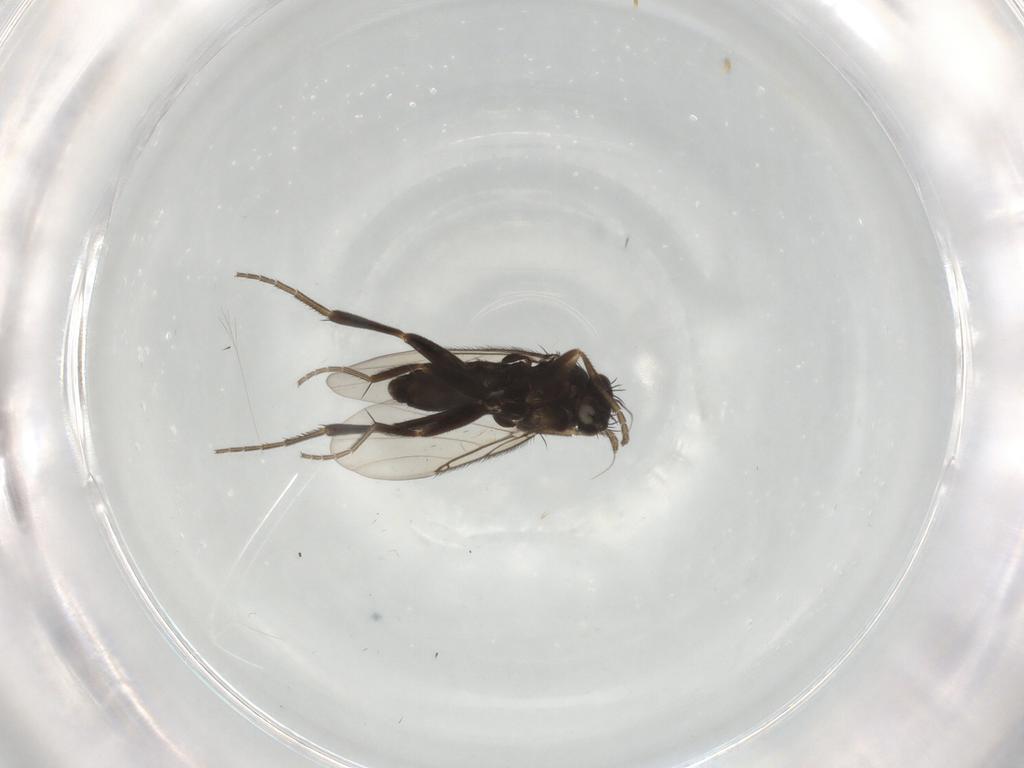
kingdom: Animalia
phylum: Arthropoda
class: Insecta
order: Diptera
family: Phoridae
